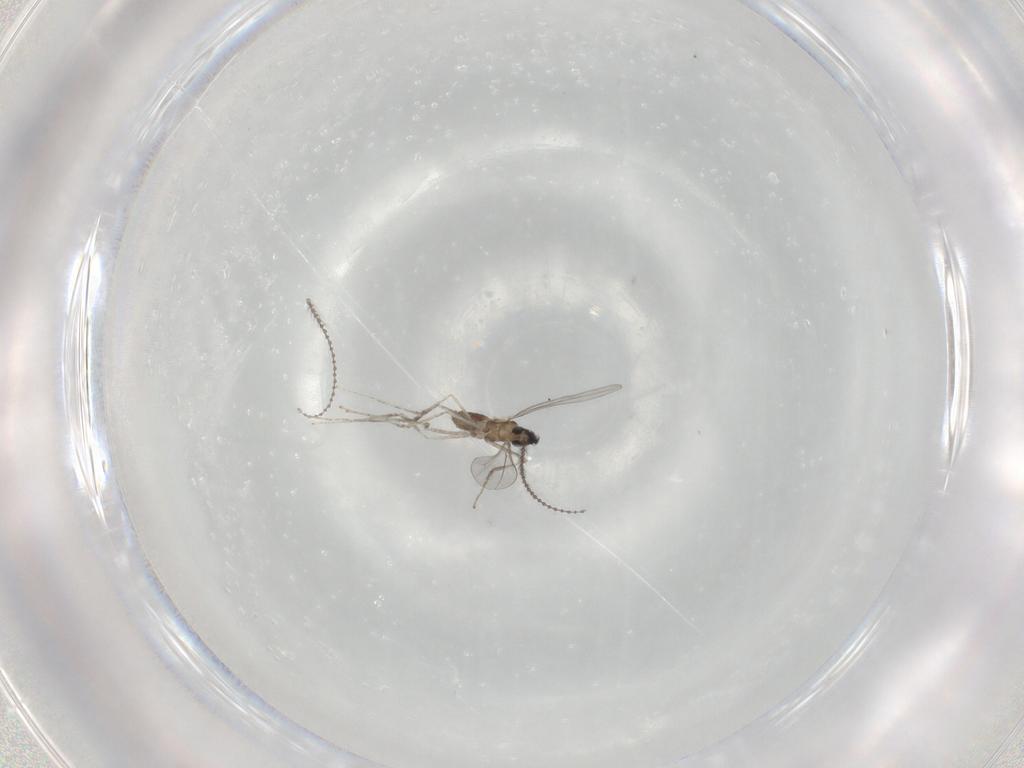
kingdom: Animalia
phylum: Arthropoda
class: Insecta
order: Diptera
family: Cecidomyiidae
